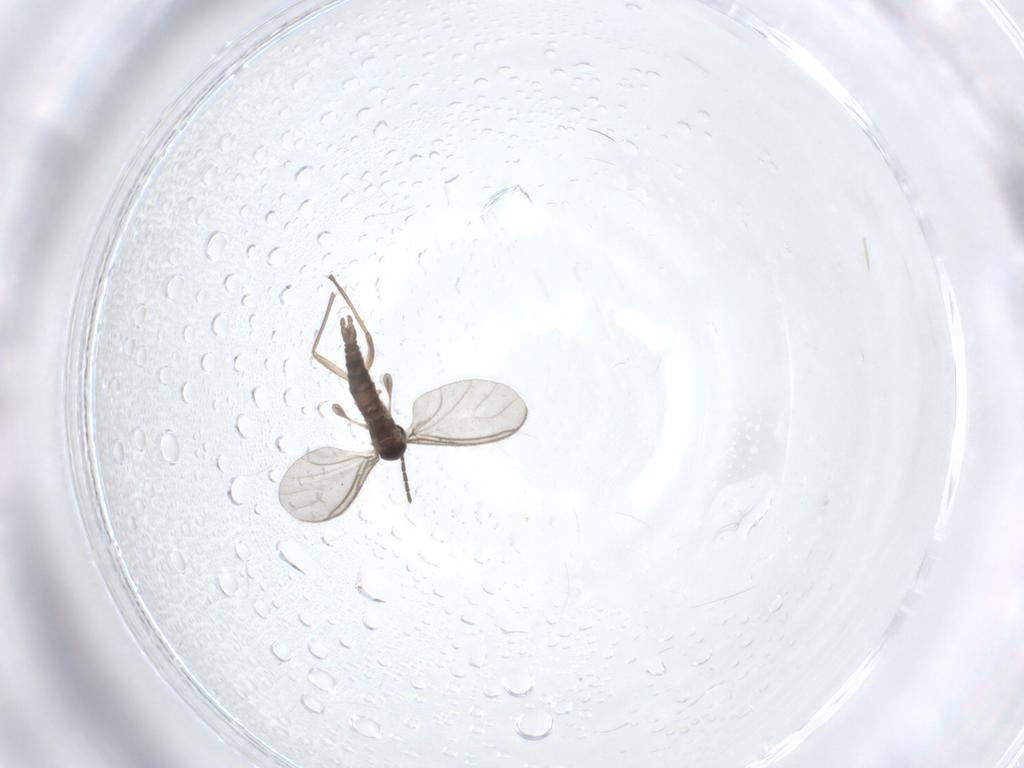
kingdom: Animalia
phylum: Arthropoda
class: Insecta
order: Diptera
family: Sciaridae
